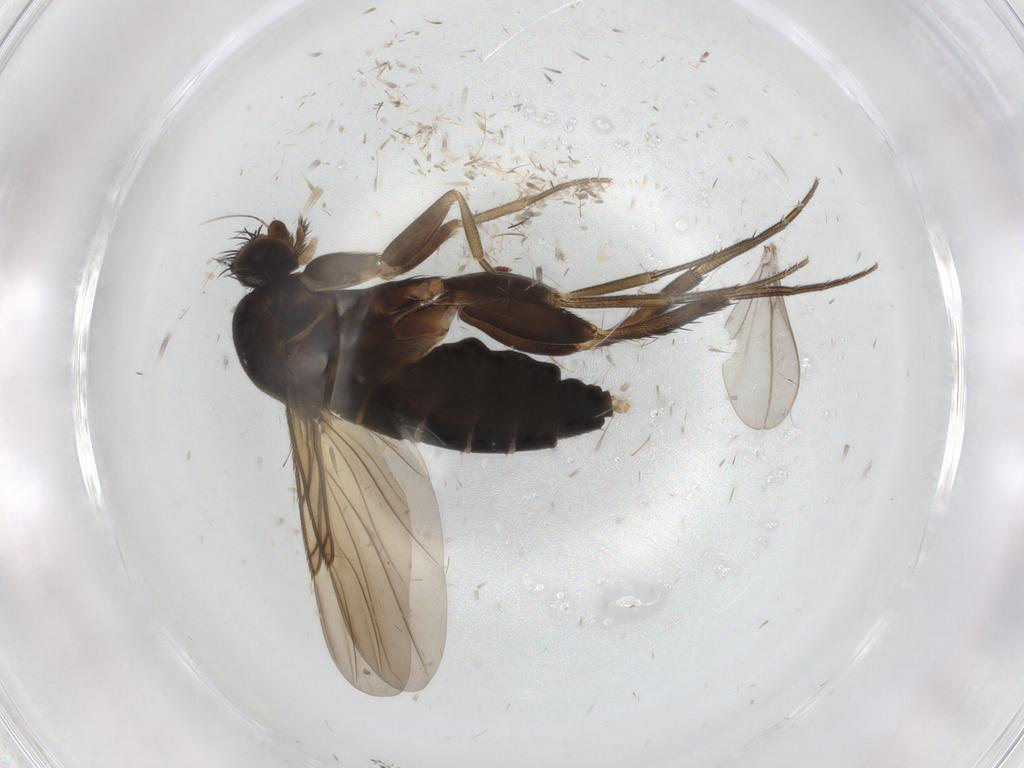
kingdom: Animalia
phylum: Arthropoda
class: Insecta
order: Diptera
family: Phoridae
